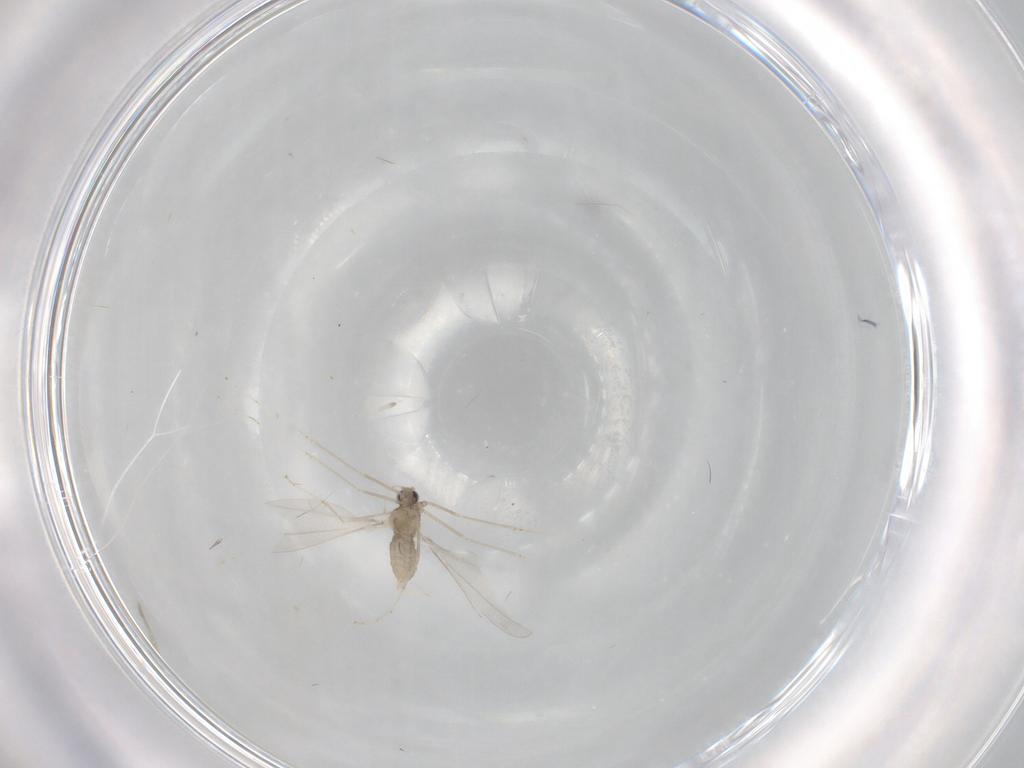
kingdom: Animalia
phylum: Arthropoda
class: Insecta
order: Diptera
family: Cecidomyiidae
